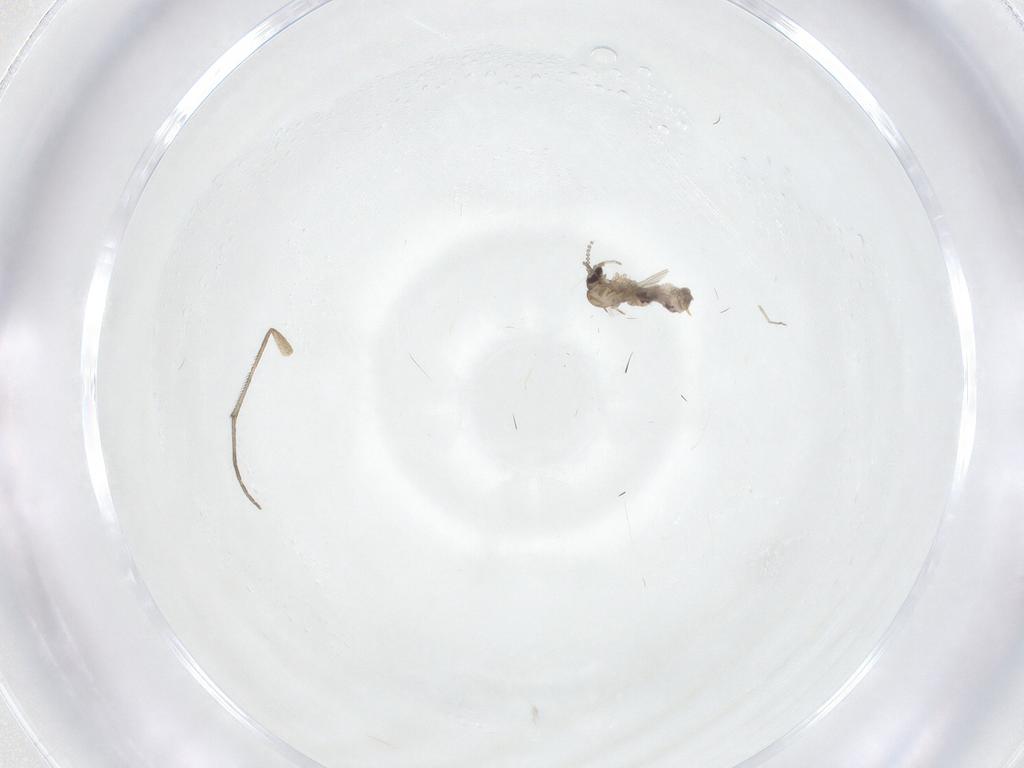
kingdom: Animalia
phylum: Arthropoda
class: Insecta
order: Diptera
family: Psychodidae
